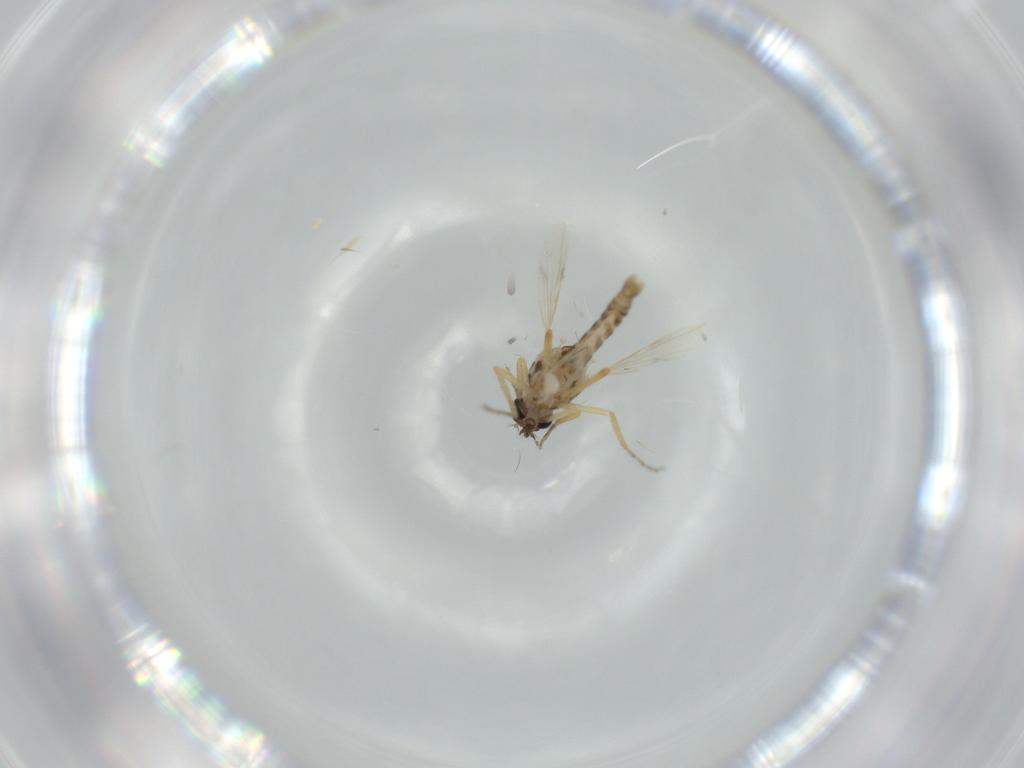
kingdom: Animalia
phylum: Arthropoda
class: Insecta
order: Diptera
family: Ceratopogonidae
